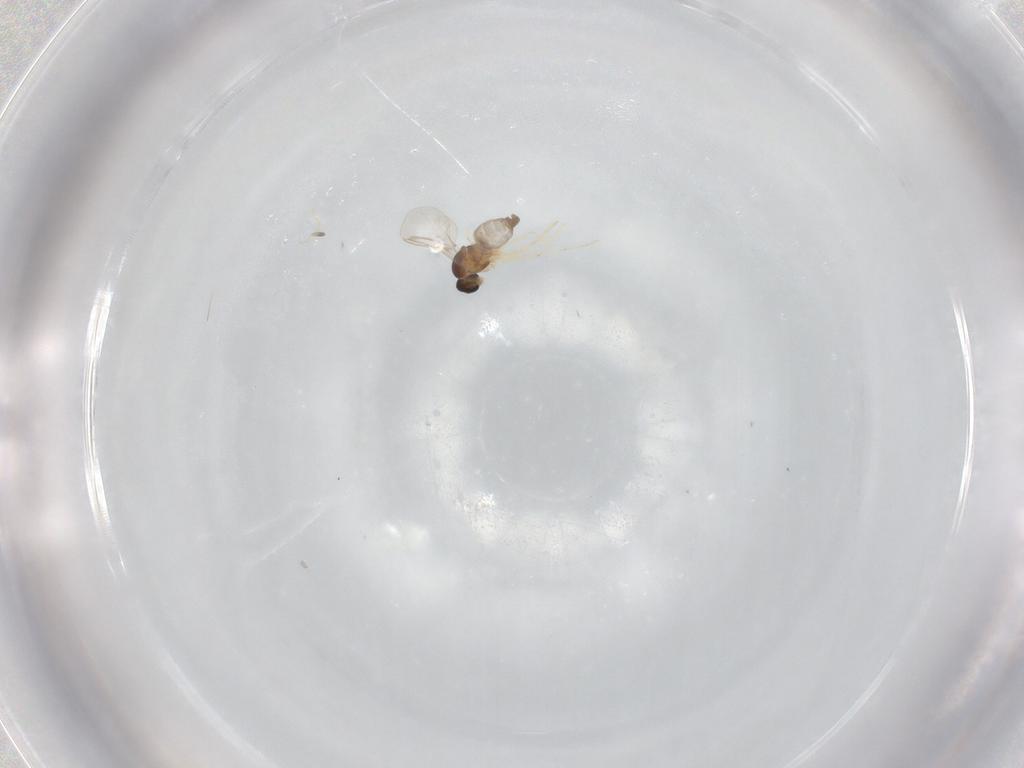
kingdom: Animalia
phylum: Arthropoda
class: Insecta
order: Diptera
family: Cecidomyiidae
